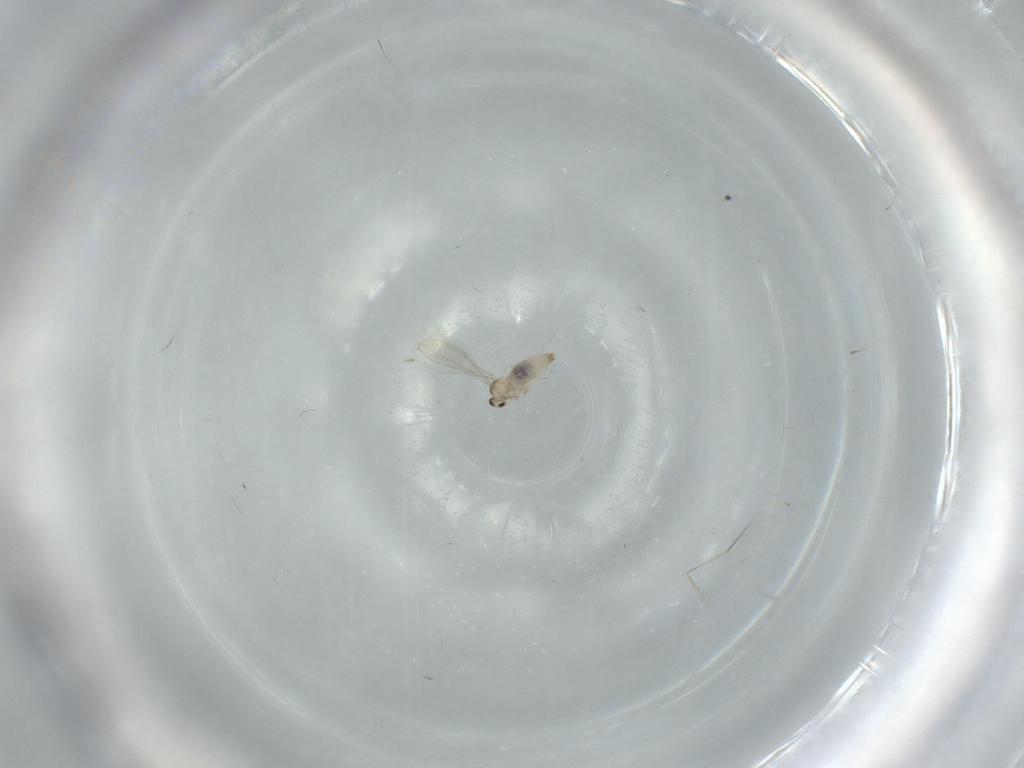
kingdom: Animalia
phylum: Arthropoda
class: Insecta
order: Diptera
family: Cecidomyiidae
